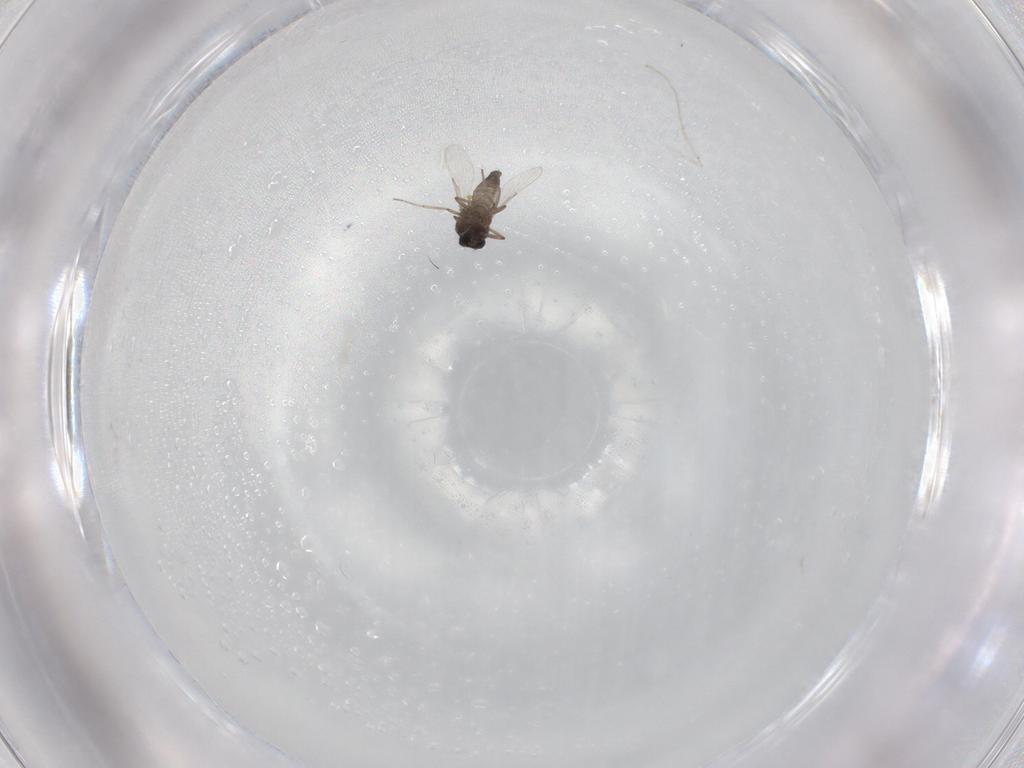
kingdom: Animalia
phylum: Arthropoda
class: Insecta
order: Diptera
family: Ceratopogonidae
